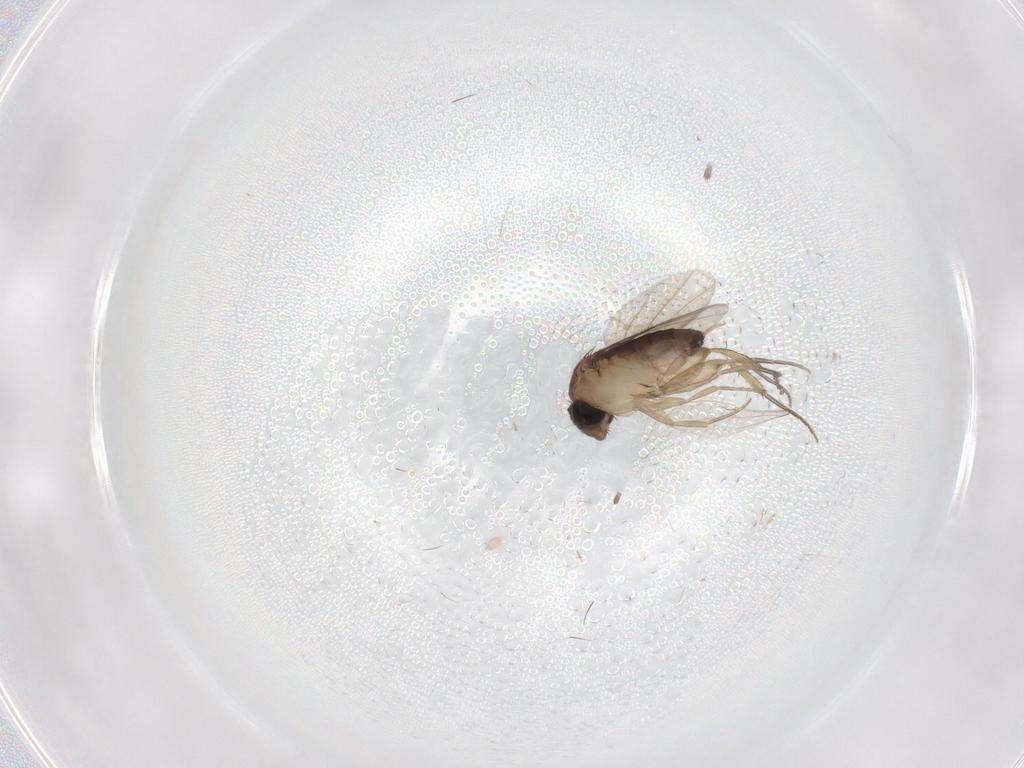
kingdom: Animalia
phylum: Arthropoda
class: Insecta
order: Diptera
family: Phoridae
